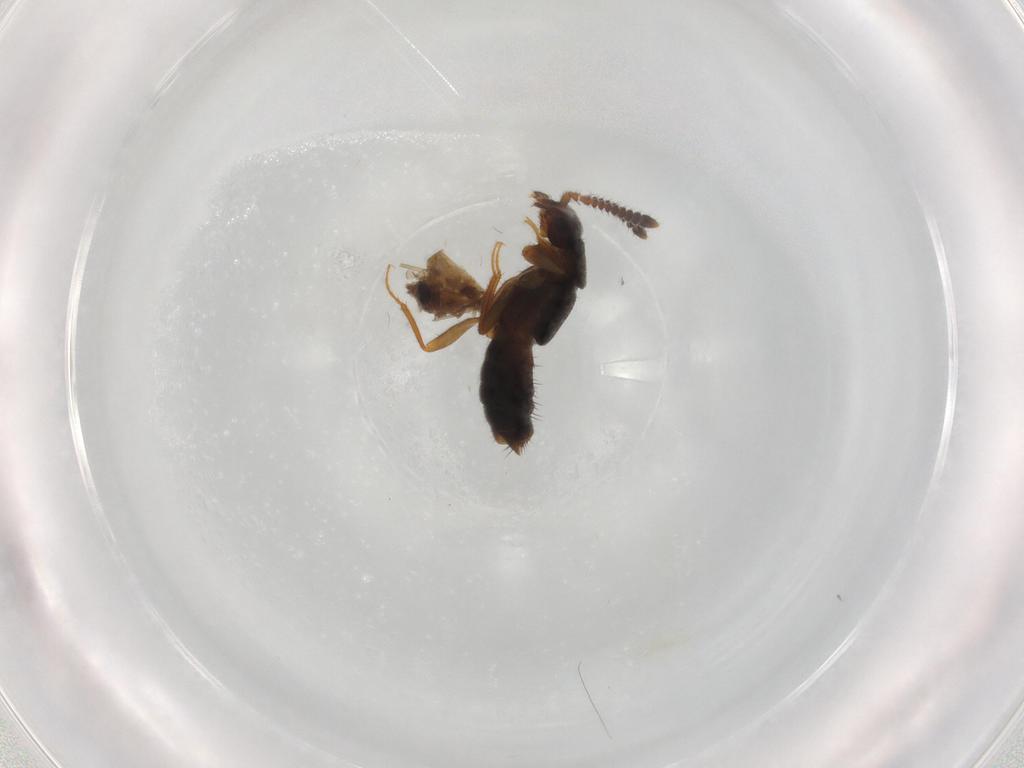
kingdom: Animalia
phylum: Arthropoda
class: Insecta
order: Coleoptera
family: Staphylinidae
